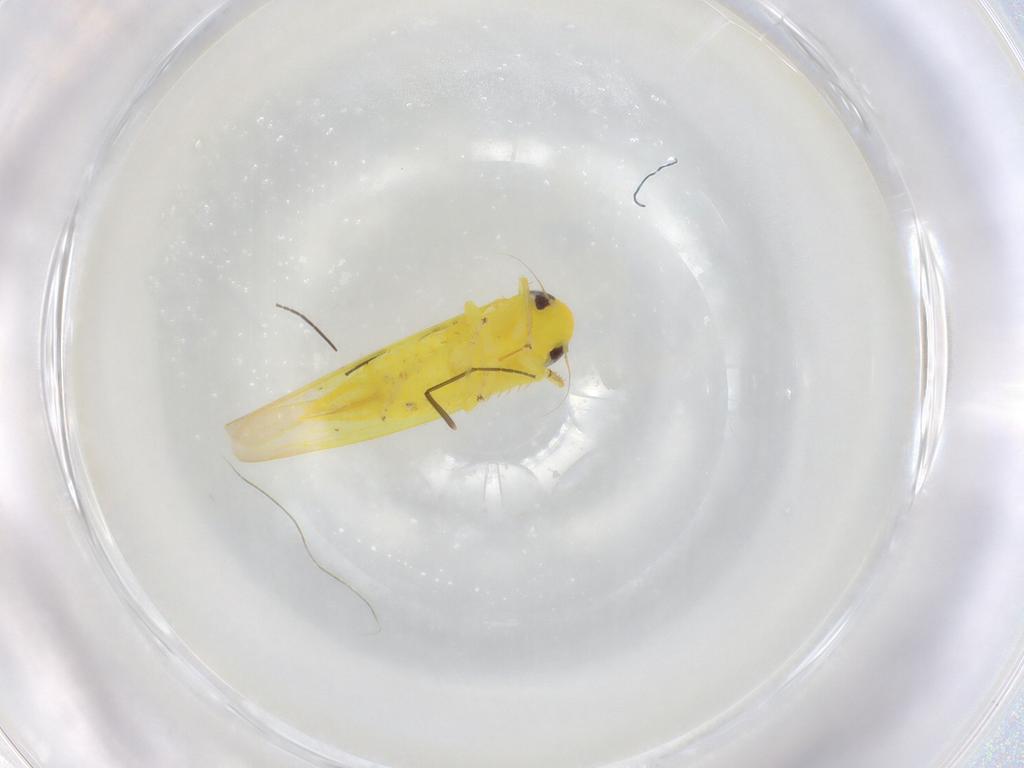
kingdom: Animalia
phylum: Arthropoda
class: Insecta
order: Hemiptera
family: Cicadellidae
